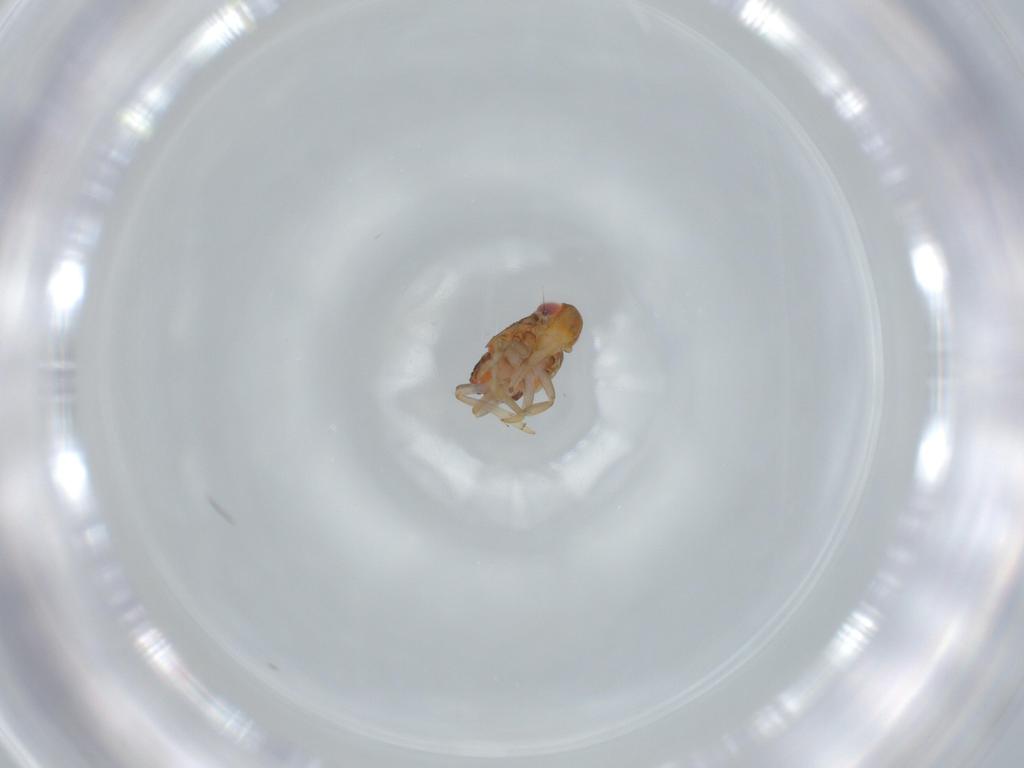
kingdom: Animalia
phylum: Arthropoda
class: Insecta
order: Hemiptera
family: Issidae
